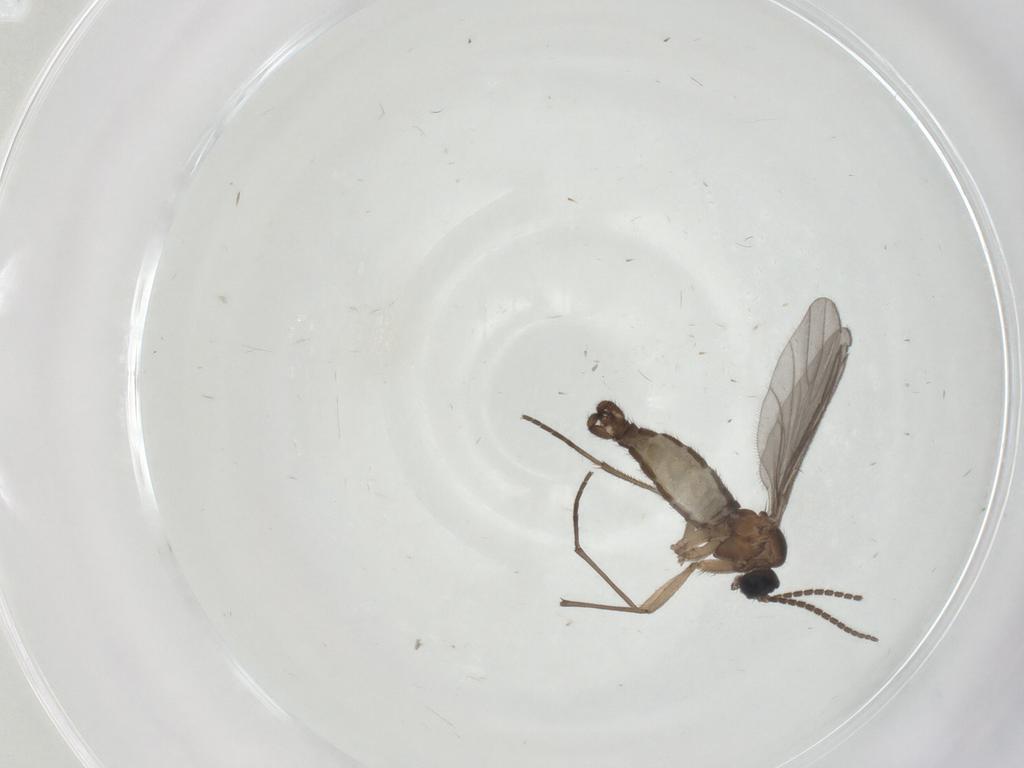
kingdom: Animalia
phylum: Arthropoda
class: Insecta
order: Diptera
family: Sciaridae
